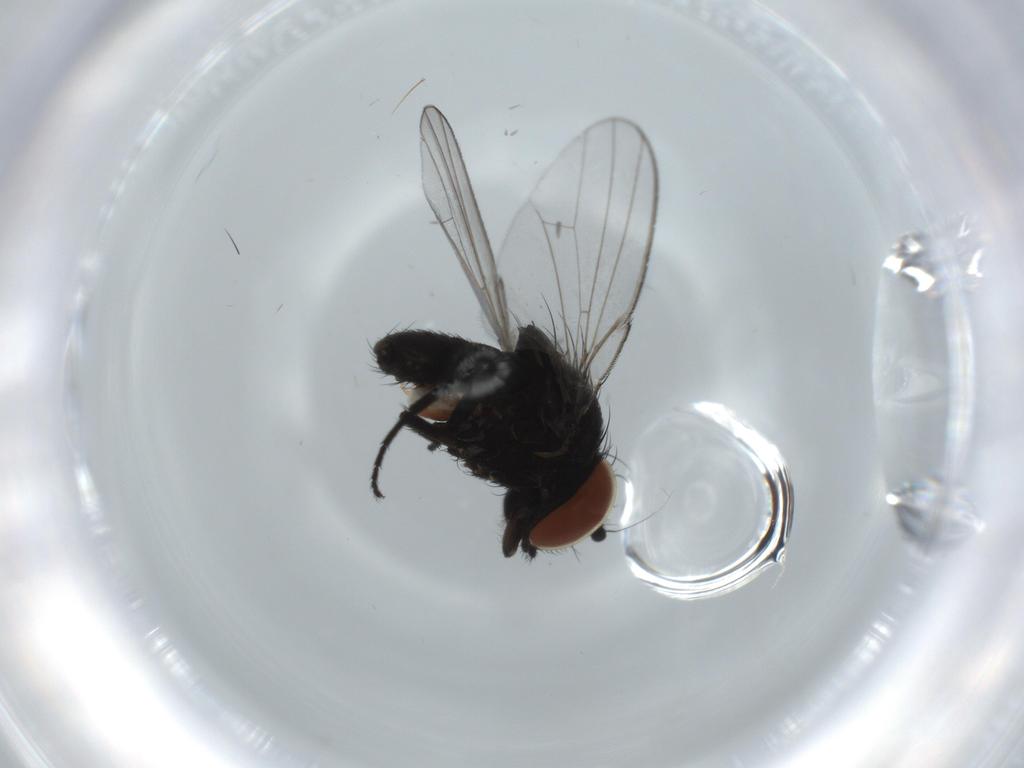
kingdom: Animalia
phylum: Arthropoda
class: Insecta
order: Diptera
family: Milichiidae
